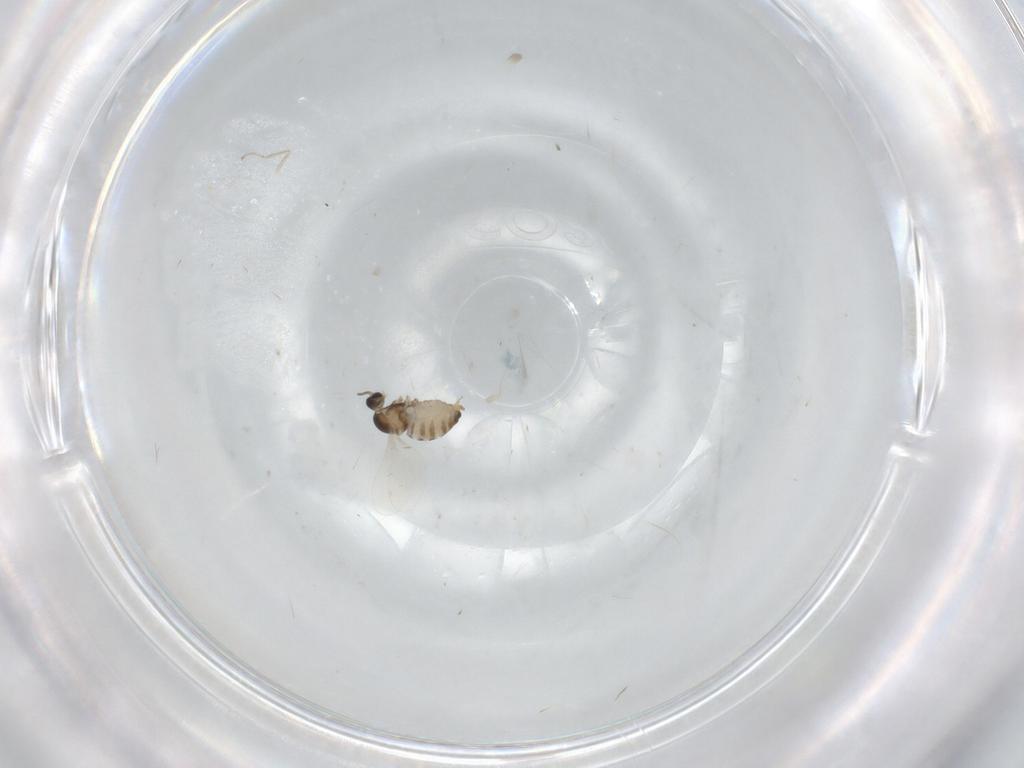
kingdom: Animalia
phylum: Arthropoda
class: Insecta
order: Diptera
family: Cecidomyiidae
